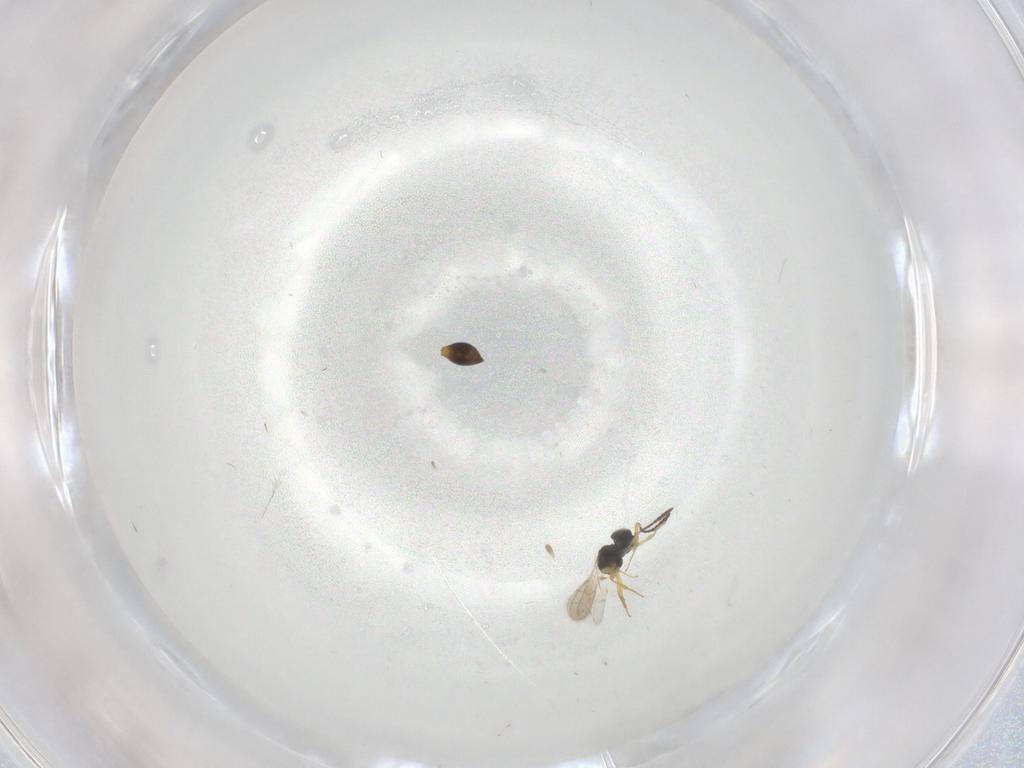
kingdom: Animalia
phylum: Arthropoda
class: Insecta
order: Hymenoptera
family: Scelionidae
